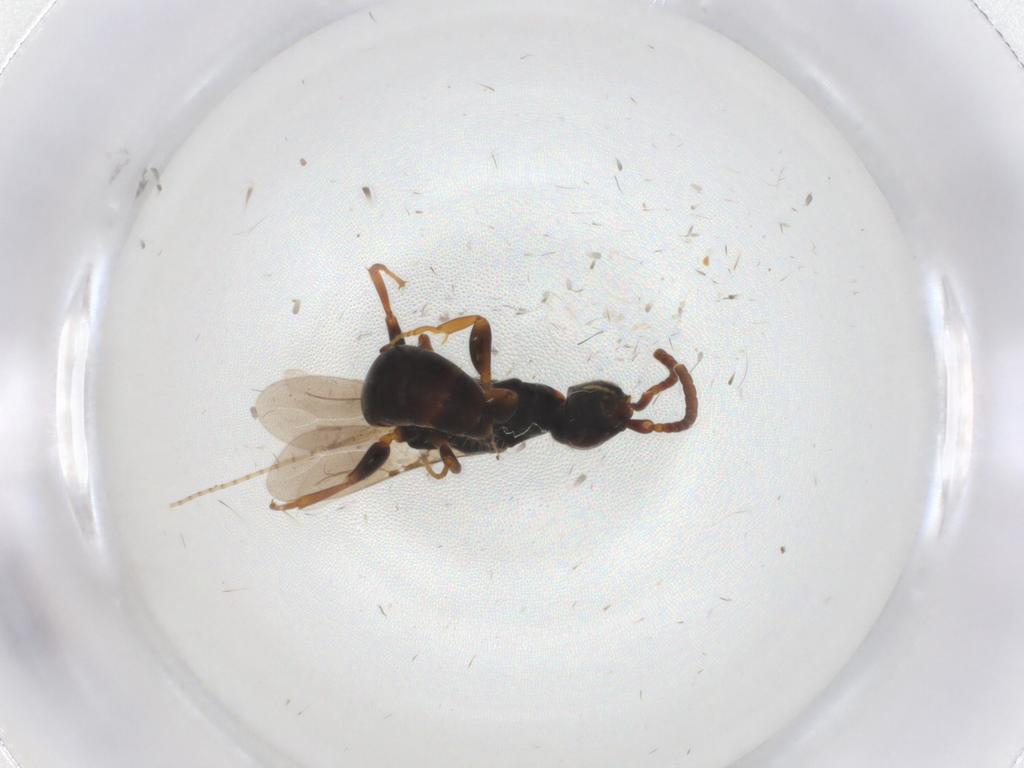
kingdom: Animalia
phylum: Arthropoda
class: Insecta
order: Hymenoptera
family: Bethylidae
